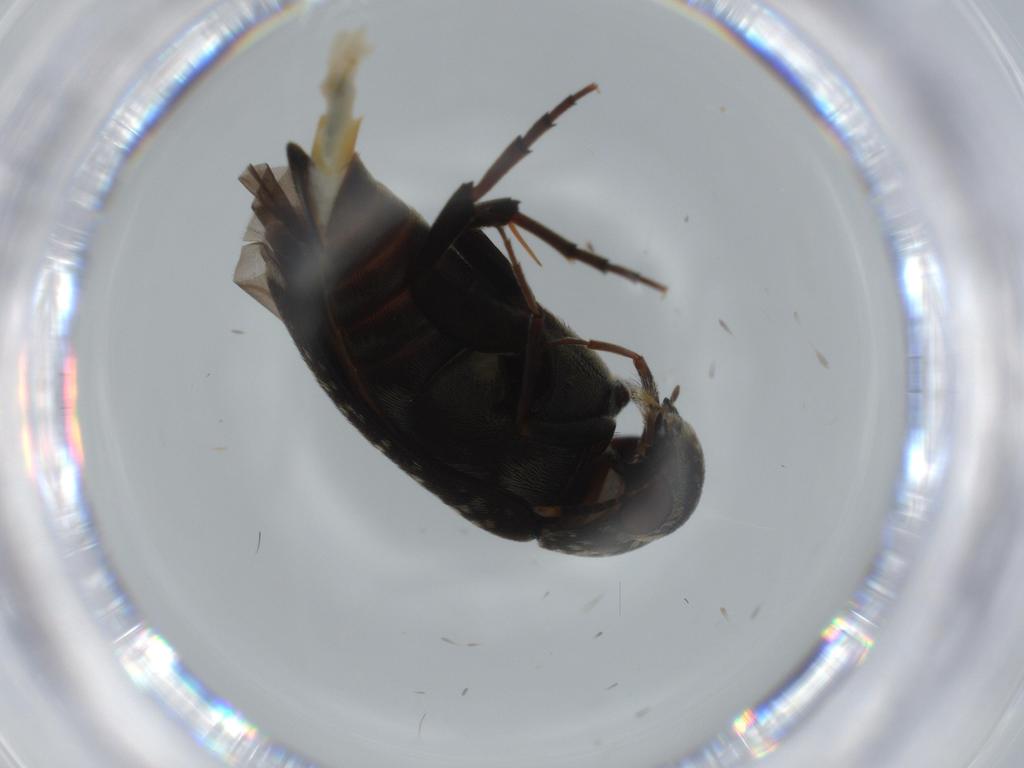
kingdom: Animalia
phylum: Arthropoda
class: Insecta
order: Coleoptera
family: Mordellidae
